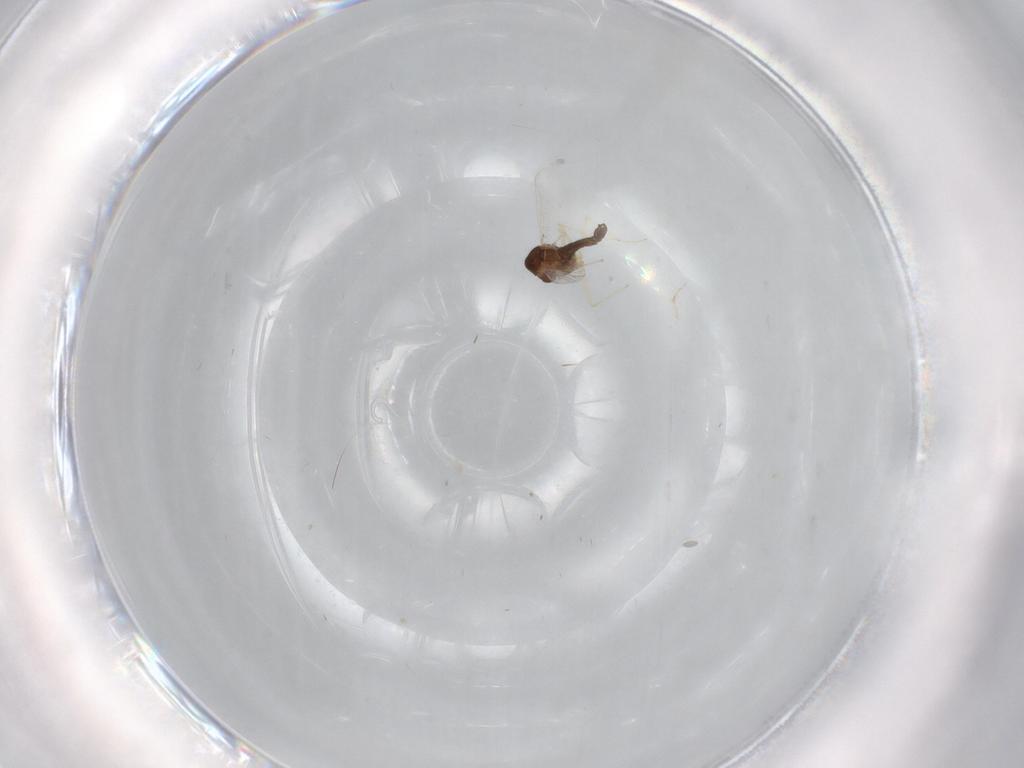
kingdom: Animalia
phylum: Arthropoda
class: Insecta
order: Diptera
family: Chironomidae
